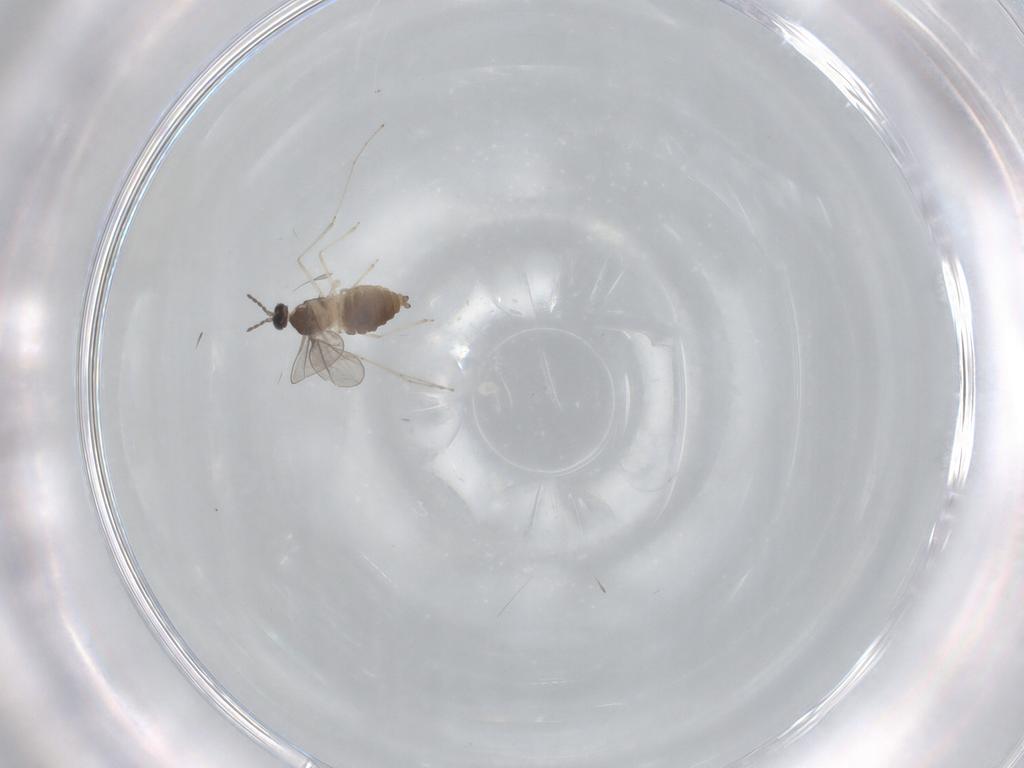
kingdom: Animalia
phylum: Arthropoda
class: Insecta
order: Diptera
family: Cecidomyiidae
